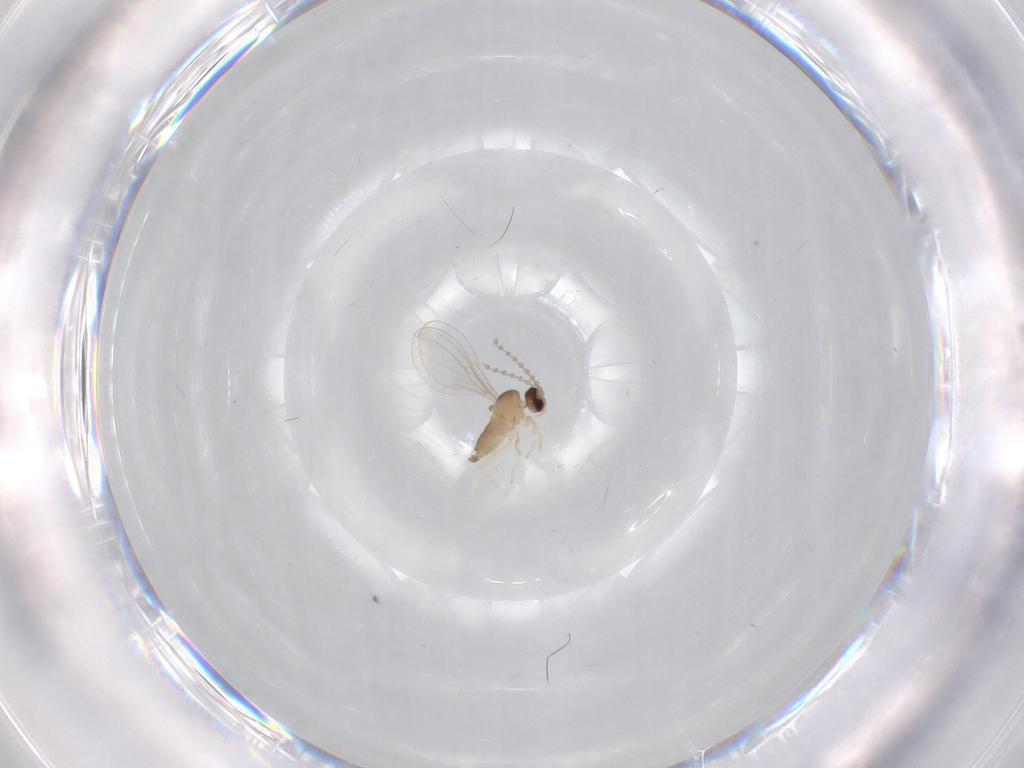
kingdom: Animalia
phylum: Arthropoda
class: Insecta
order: Diptera
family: Phoridae
